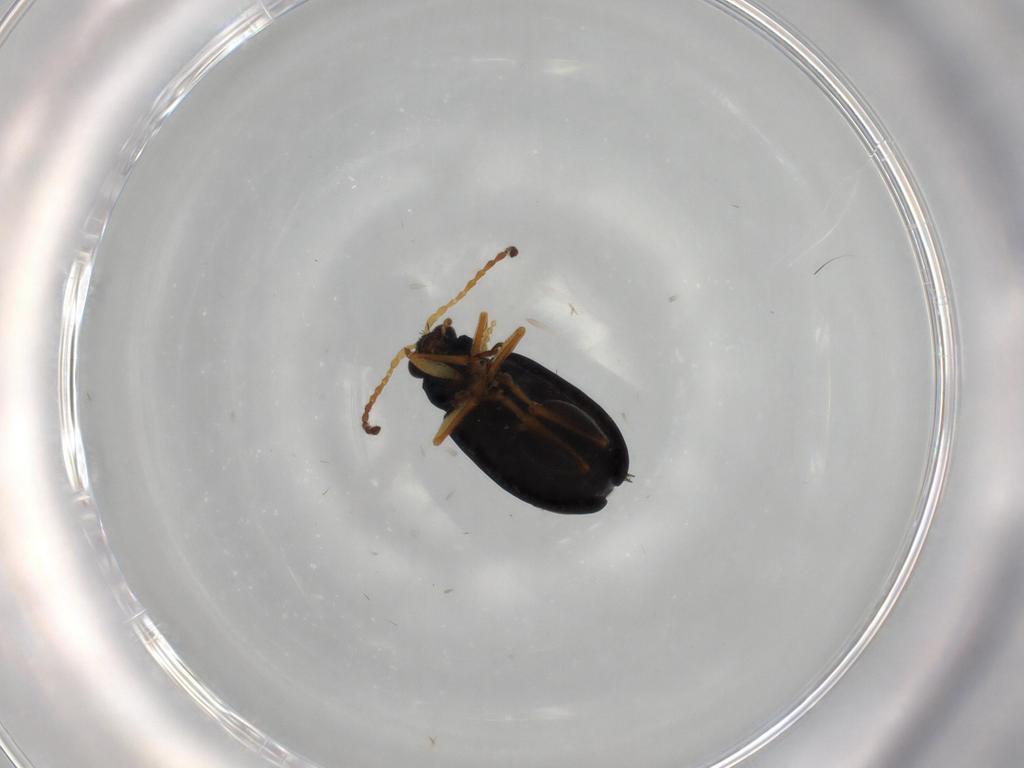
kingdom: Animalia
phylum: Arthropoda
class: Insecta
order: Coleoptera
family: Chrysomelidae
